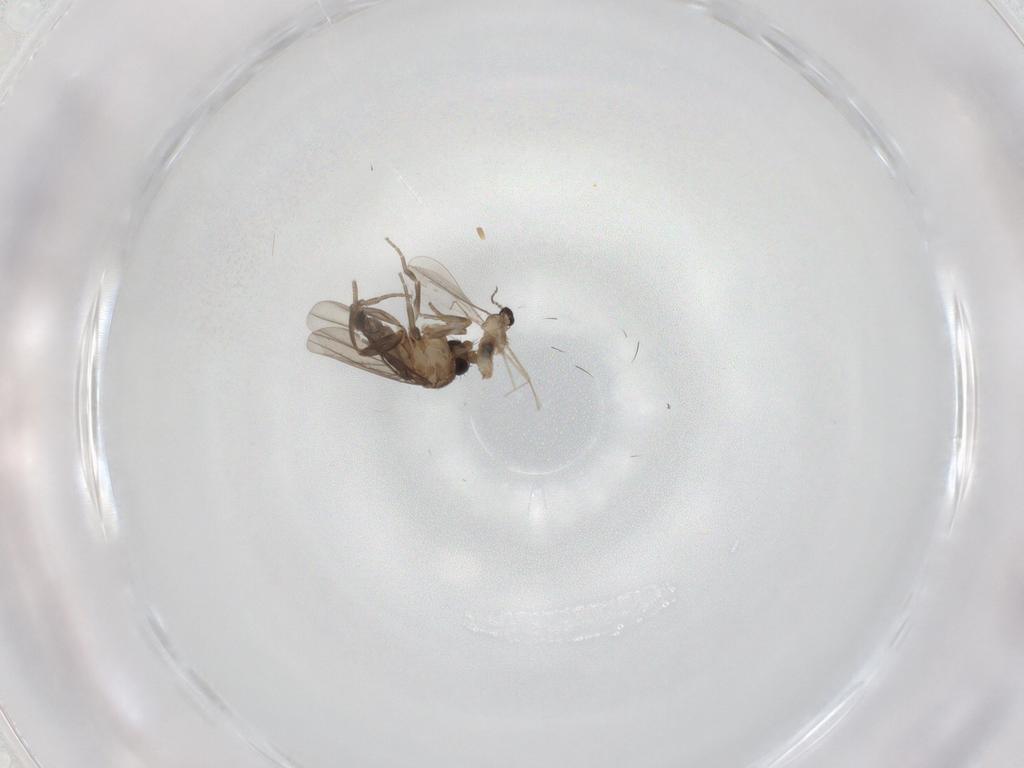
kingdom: Animalia
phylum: Arthropoda
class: Insecta
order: Diptera
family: Cecidomyiidae
